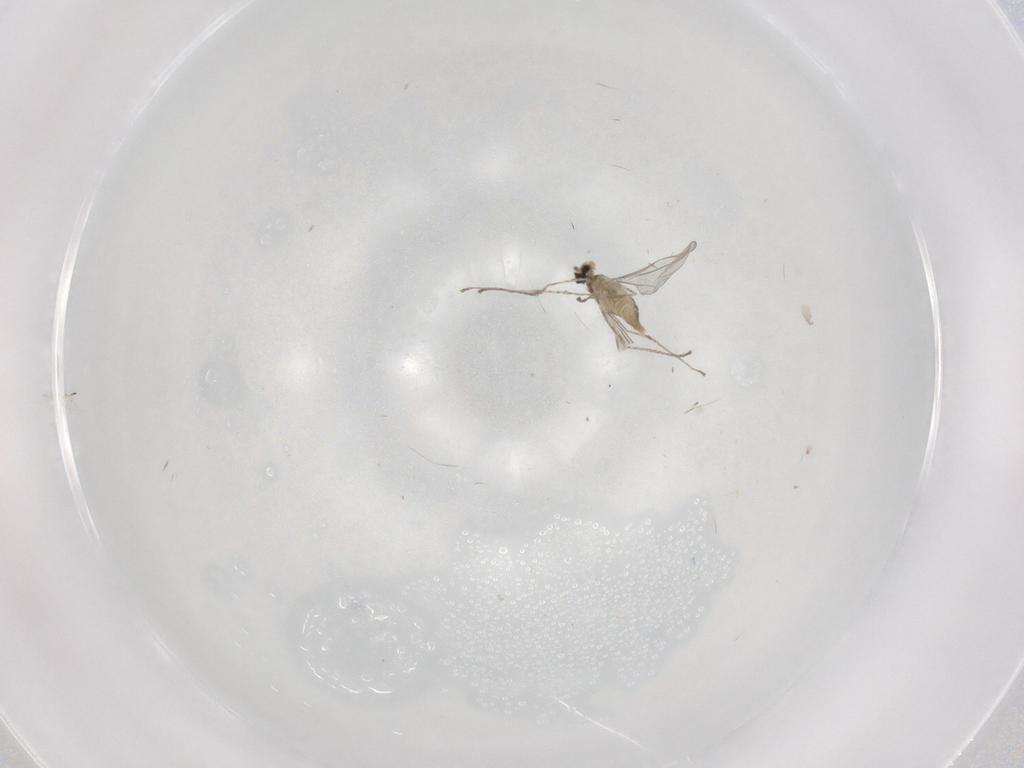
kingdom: Animalia
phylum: Arthropoda
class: Insecta
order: Diptera
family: Cecidomyiidae
